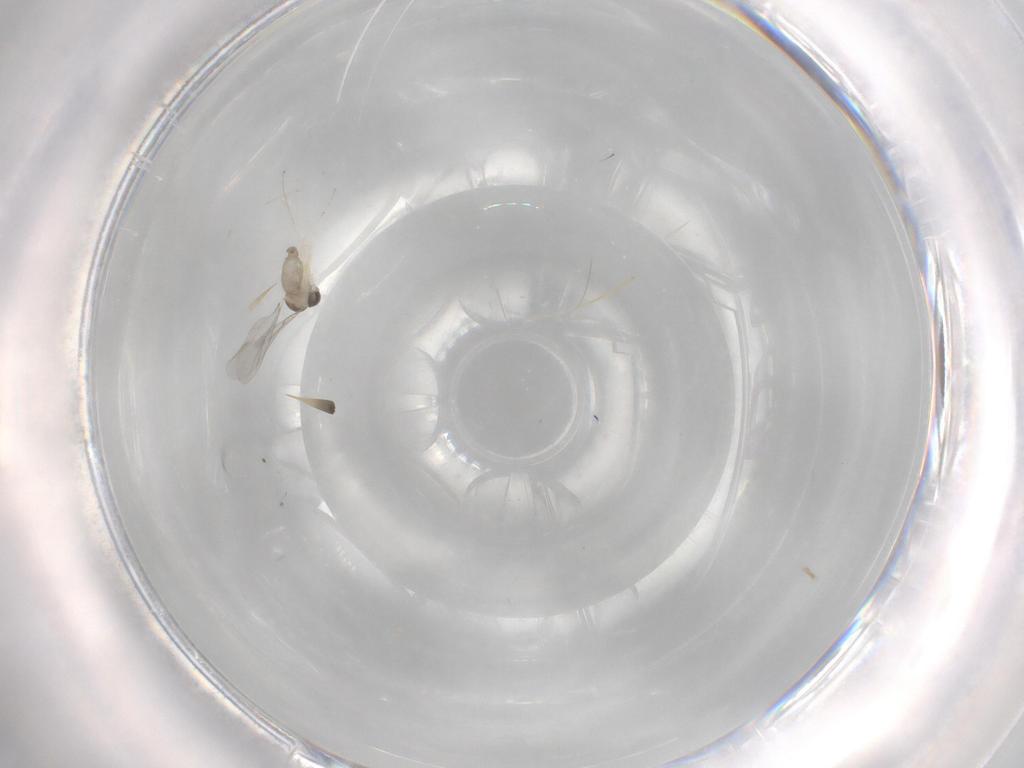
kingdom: Animalia
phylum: Arthropoda
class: Insecta
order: Diptera
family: Cecidomyiidae
